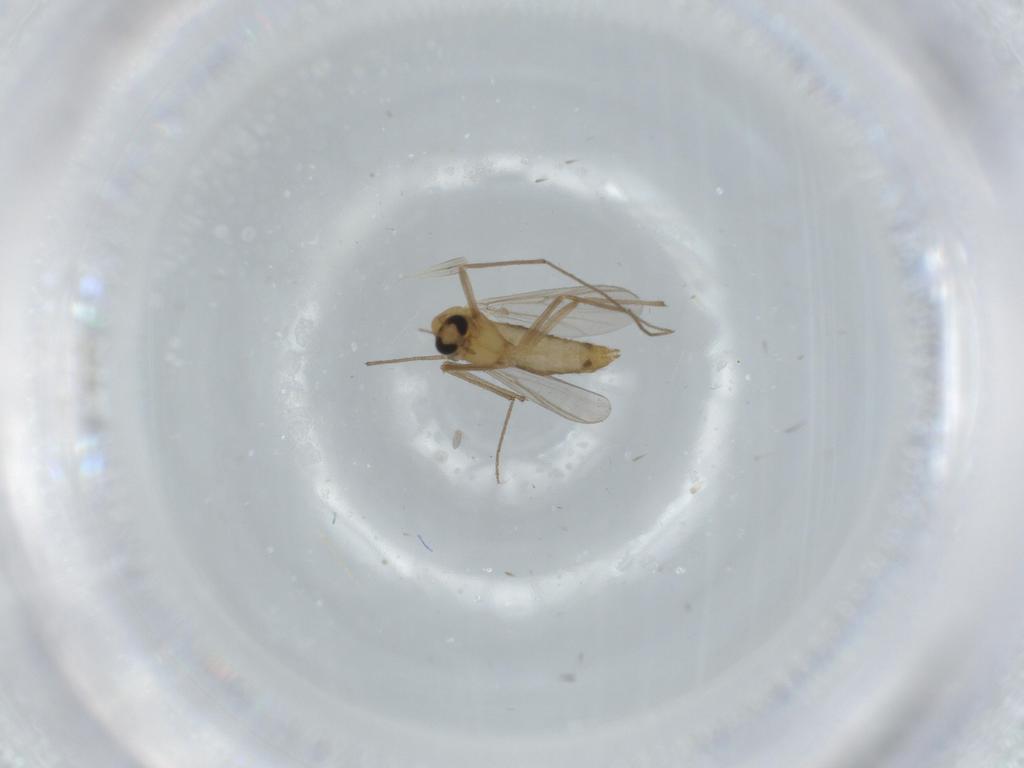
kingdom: Animalia
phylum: Arthropoda
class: Insecta
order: Diptera
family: Chironomidae
